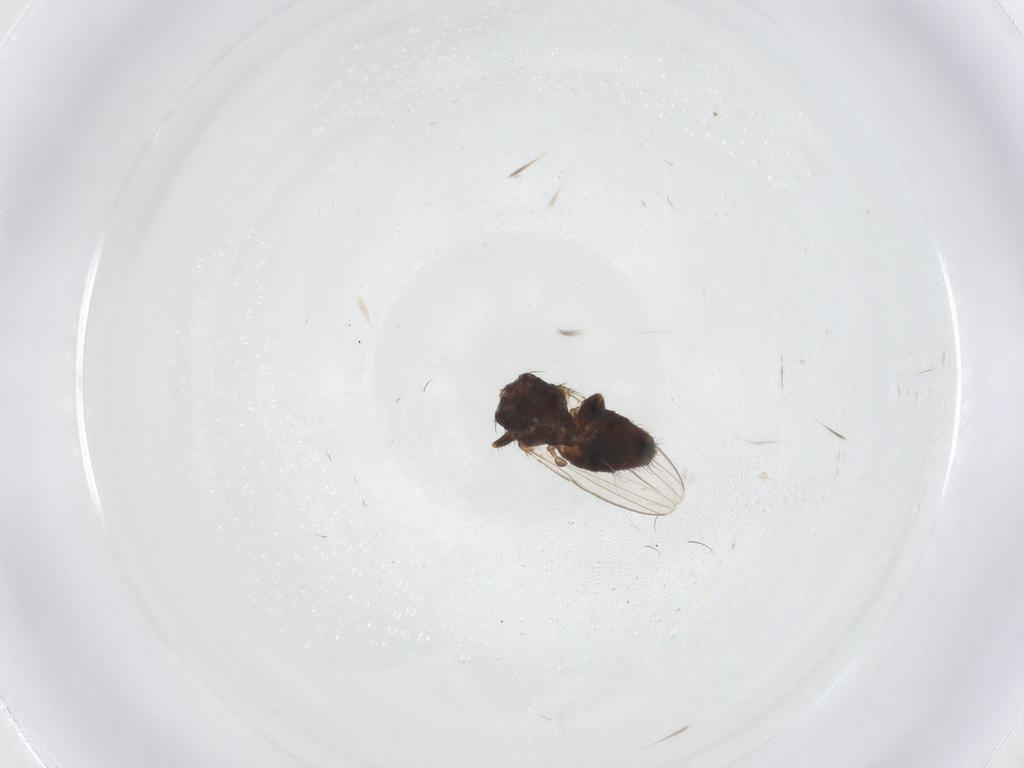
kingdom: Animalia
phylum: Arthropoda
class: Insecta
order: Diptera
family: Milichiidae
